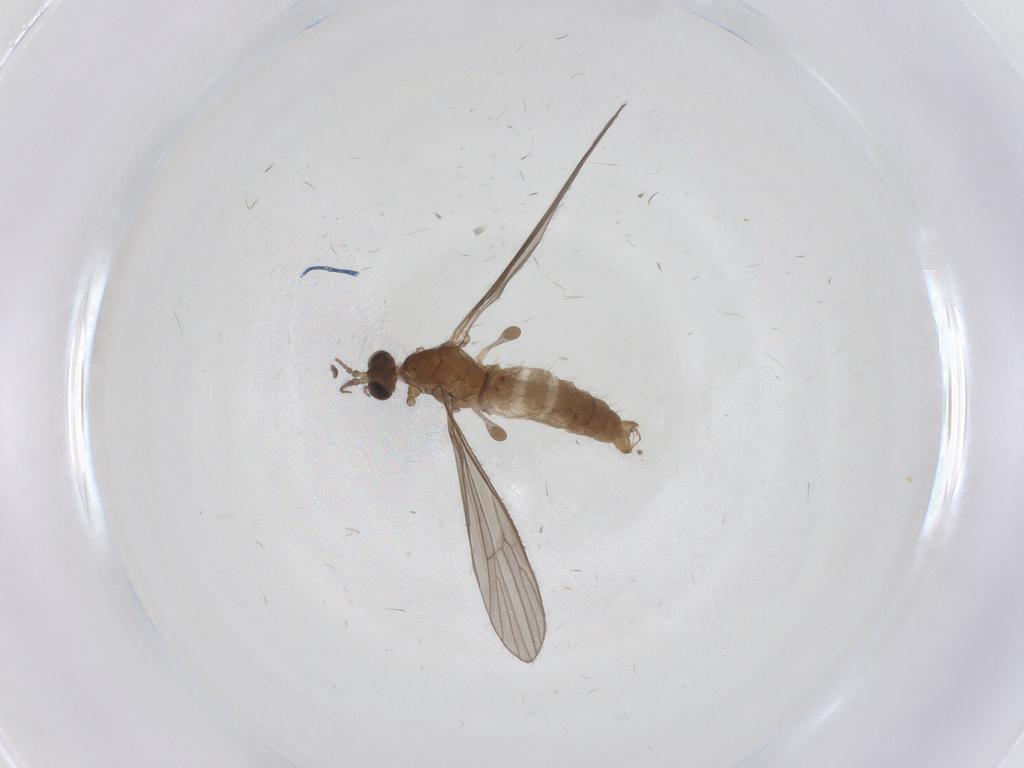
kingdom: Animalia
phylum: Arthropoda
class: Insecta
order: Diptera
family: Limoniidae
